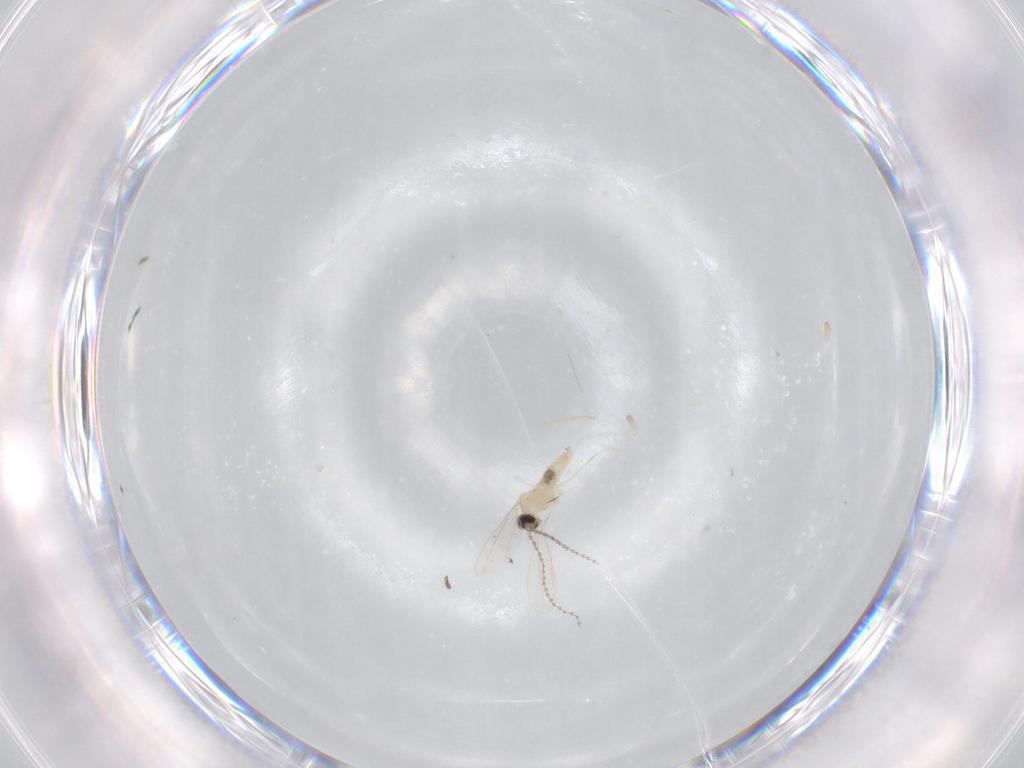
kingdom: Animalia
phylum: Arthropoda
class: Insecta
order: Diptera
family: Cecidomyiidae
